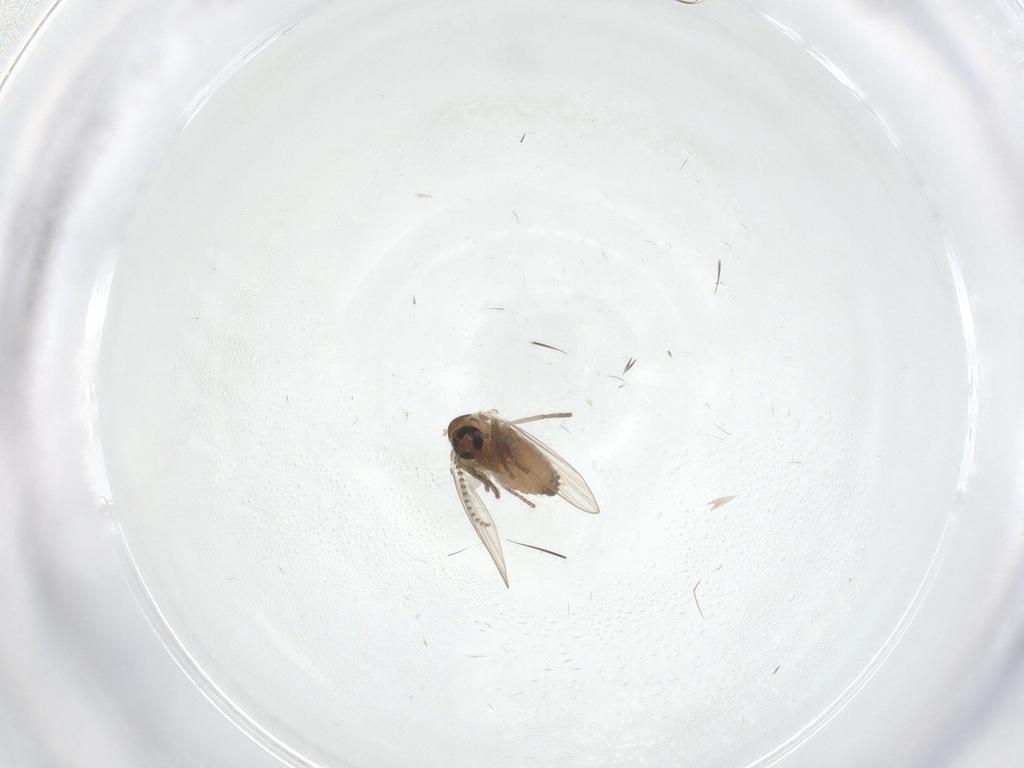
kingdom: Animalia
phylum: Arthropoda
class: Insecta
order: Diptera
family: Psychodidae
